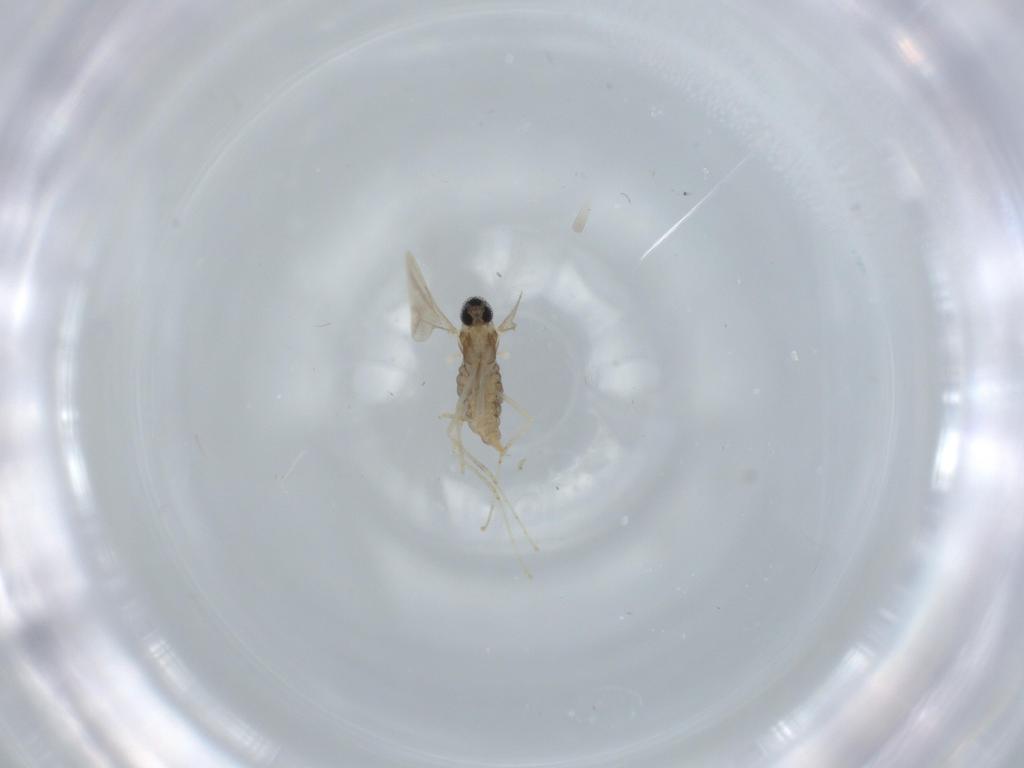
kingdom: Animalia
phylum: Arthropoda
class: Insecta
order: Diptera
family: Cecidomyiidae
